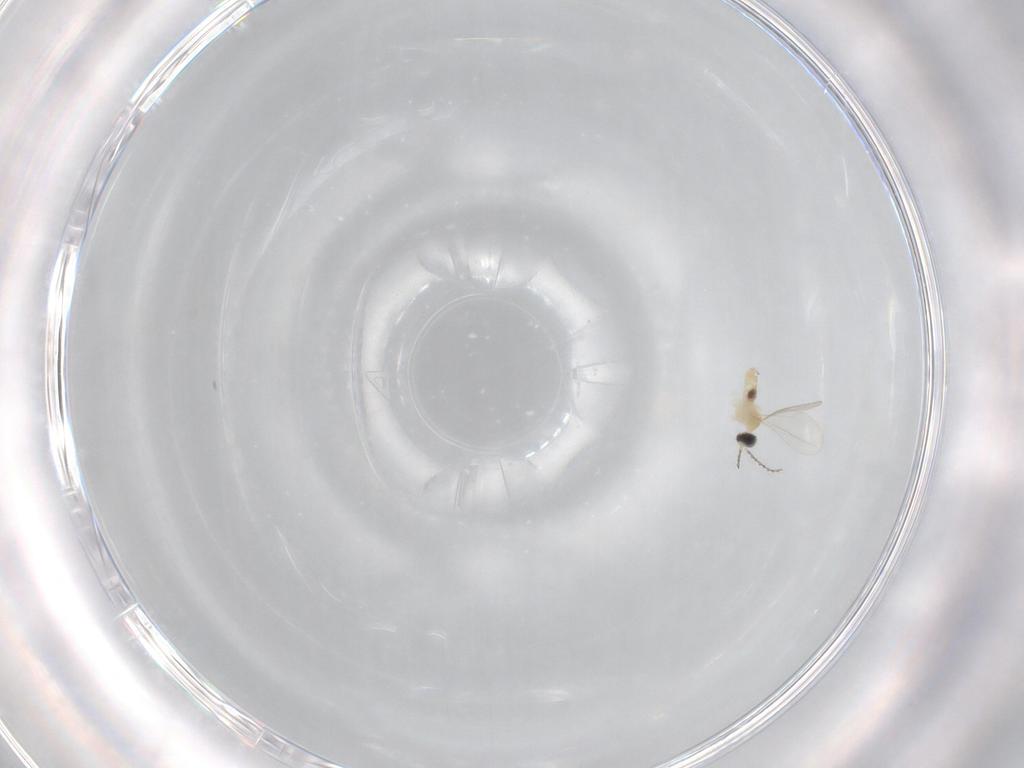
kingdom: Animalia
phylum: Arthropoda
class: Insecta
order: Diptera
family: Cecidomyiidae
